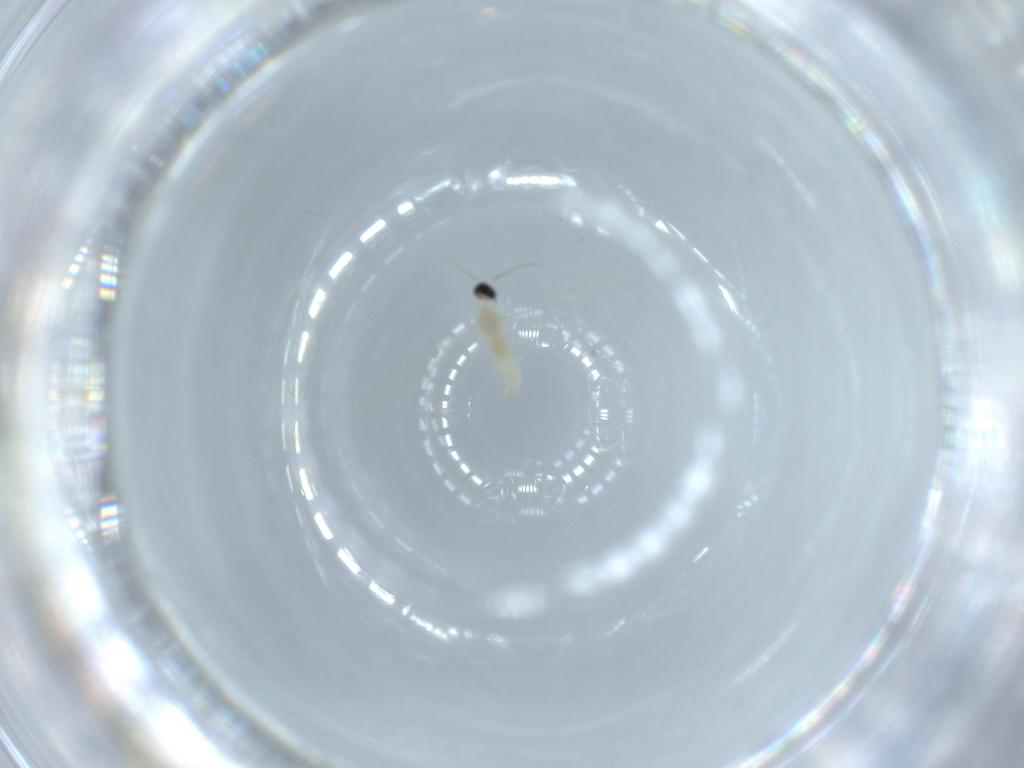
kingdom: Animalia
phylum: Arthropoda
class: Insecta
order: Diptera
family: Cecidomyiidae
